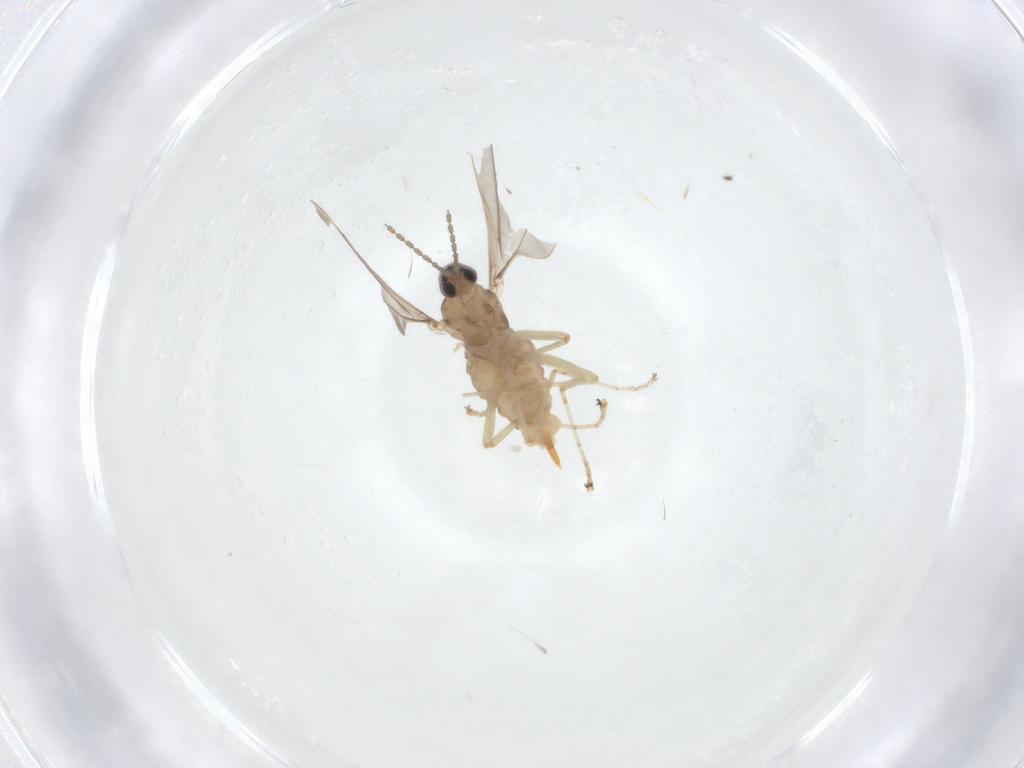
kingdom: Animalia
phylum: Arthropoda
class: Insecta
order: Diptera
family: Cecidomyiidae
